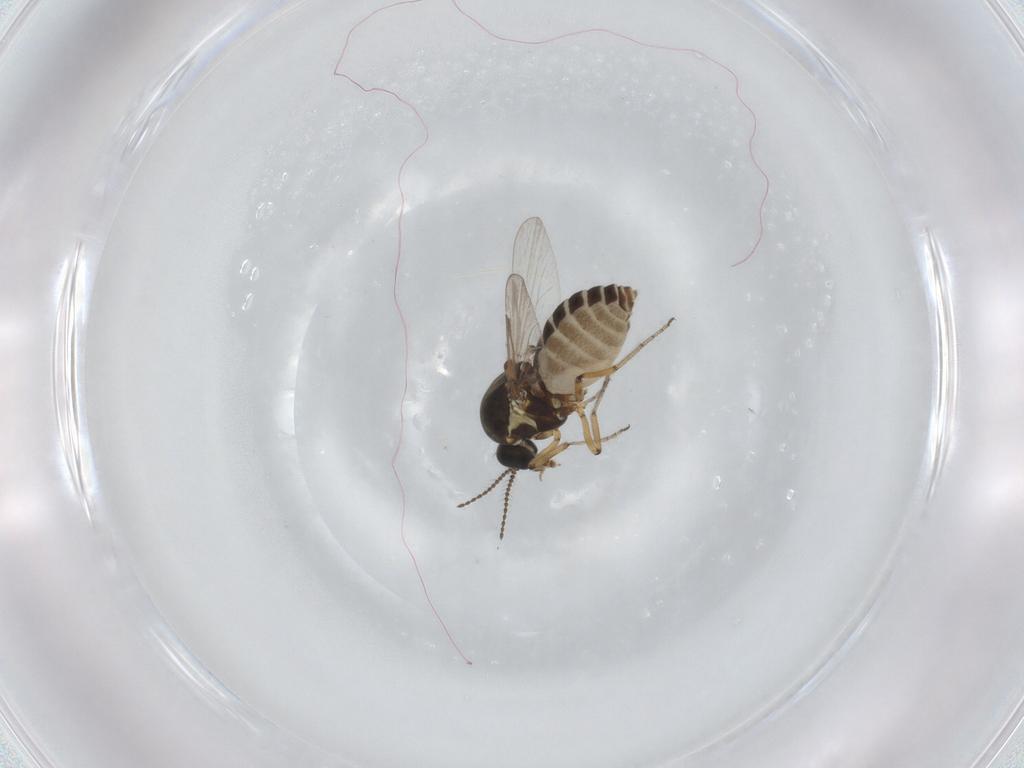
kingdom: Animalia
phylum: Arthropoda
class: Insecta
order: Diptera
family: Ceratopogonidae
